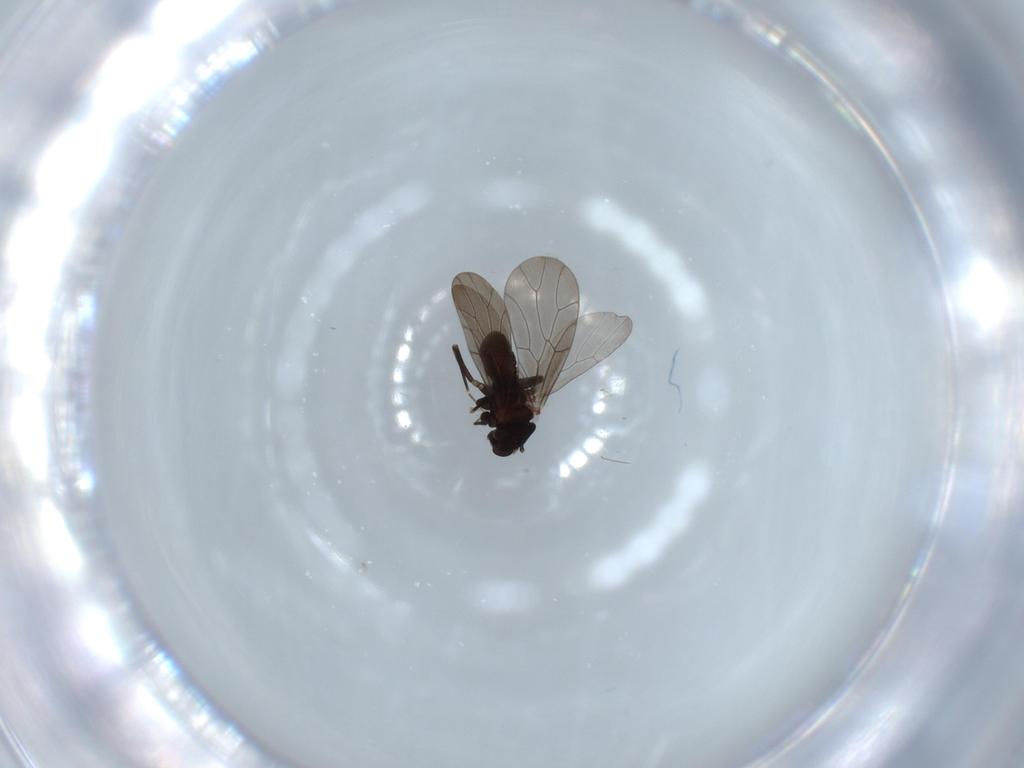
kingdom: Animalia
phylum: Arthropoda
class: Insecta
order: Psocodea
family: Lepidopsocidae
